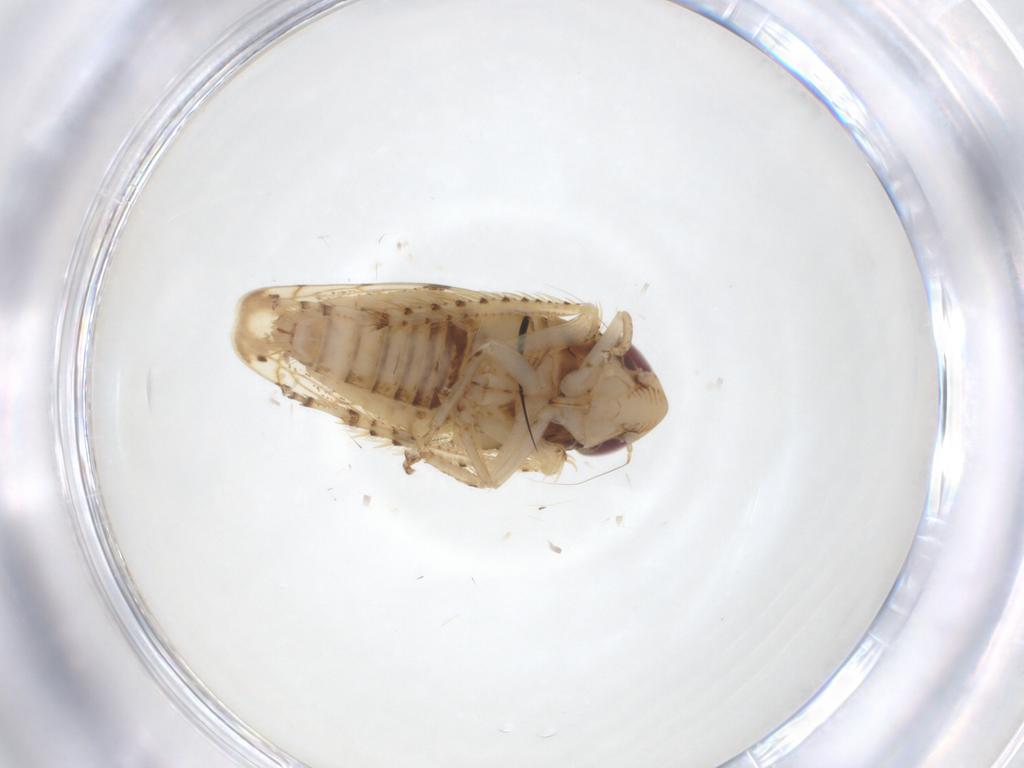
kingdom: Animalia
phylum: Arthropoda
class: Insecta
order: Hemiptera
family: Cicadellidae
